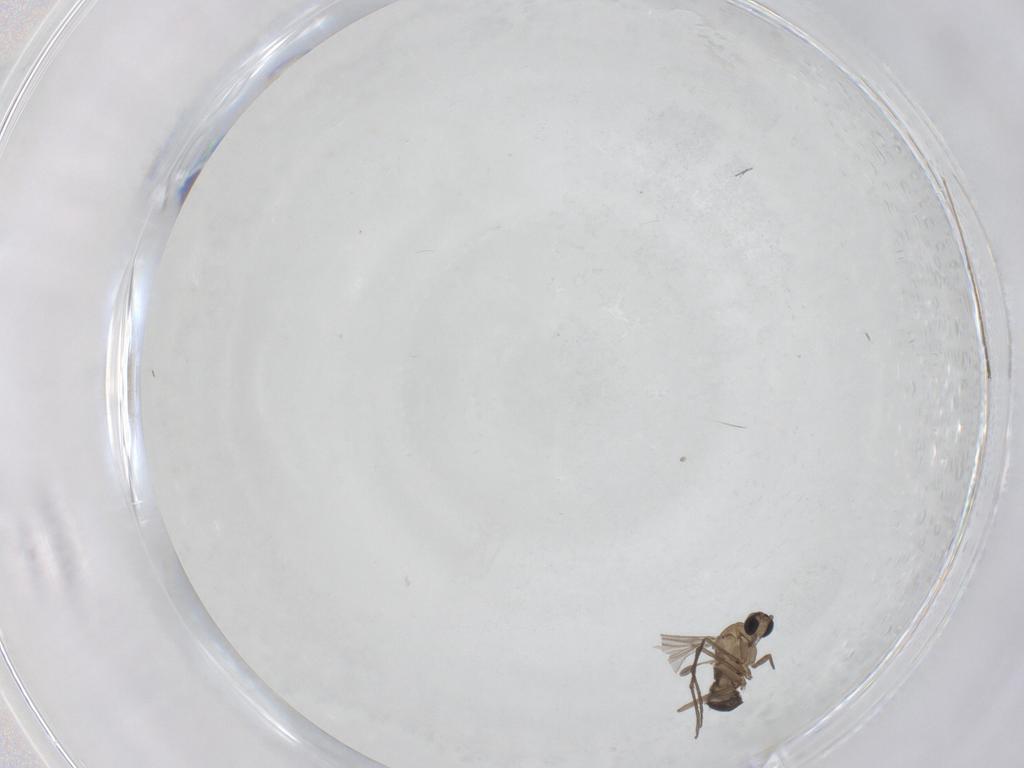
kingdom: Animalia
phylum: Arthropoda
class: Insecta
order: Diptera
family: Sciaridae
